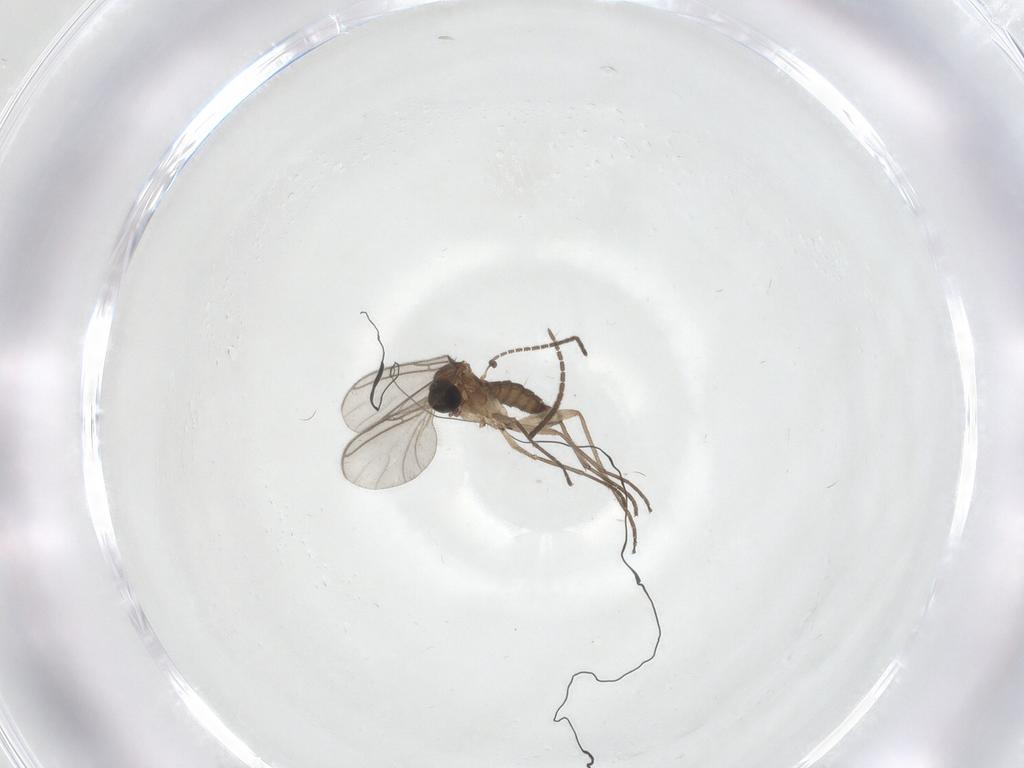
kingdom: Animalia
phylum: Arthropoda
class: Insecta
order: Diptera
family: Sciaridae
